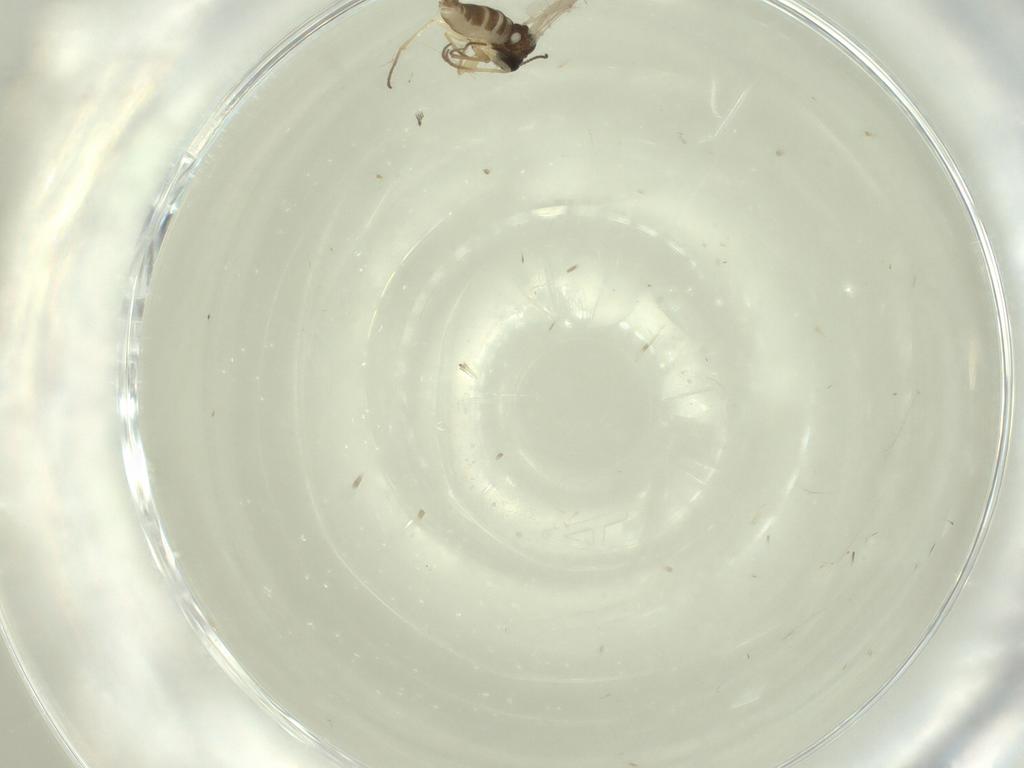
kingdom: Animalia
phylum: Arthropoda
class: Insecta
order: Diptera
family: Sciaridae
